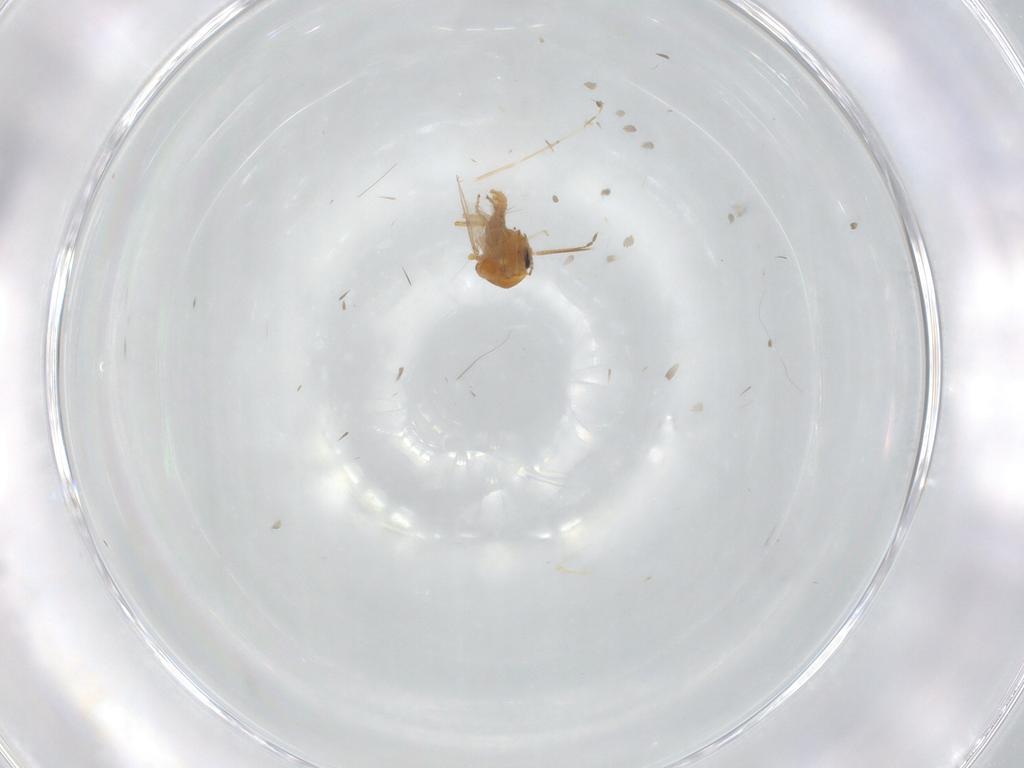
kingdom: Animalia
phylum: Arthropoda
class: Insecta
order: Diptera
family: Ceratopogonidae
